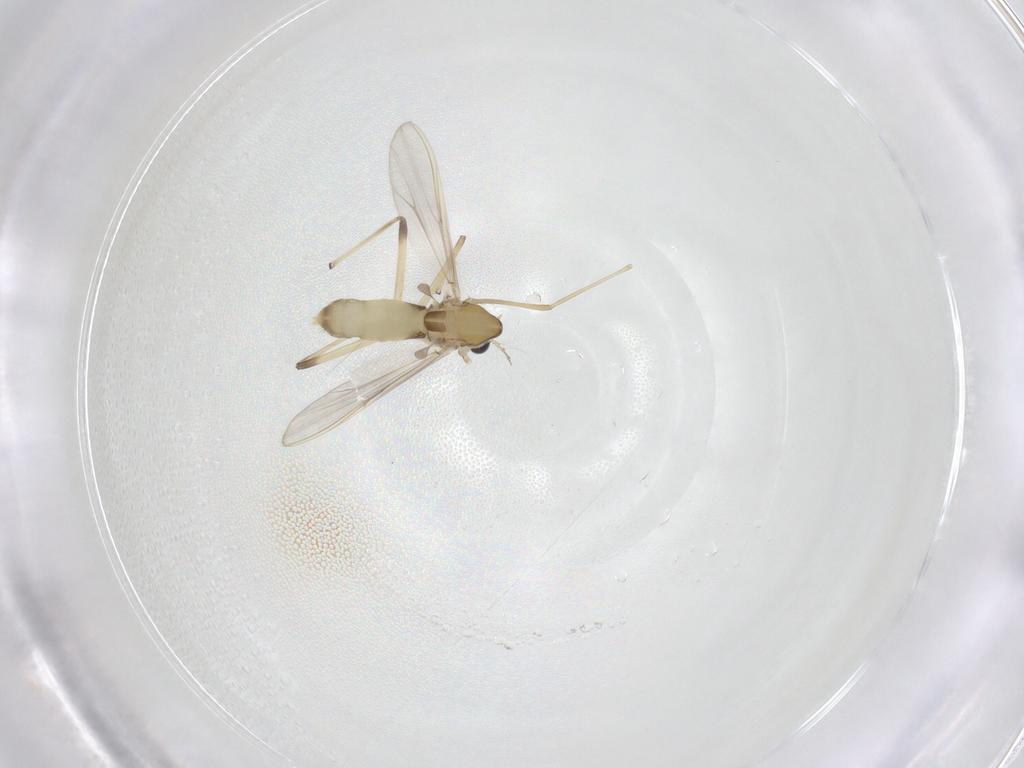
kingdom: Animalia
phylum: Arthropoda
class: Insecta
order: Diptera
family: Chironomidae
